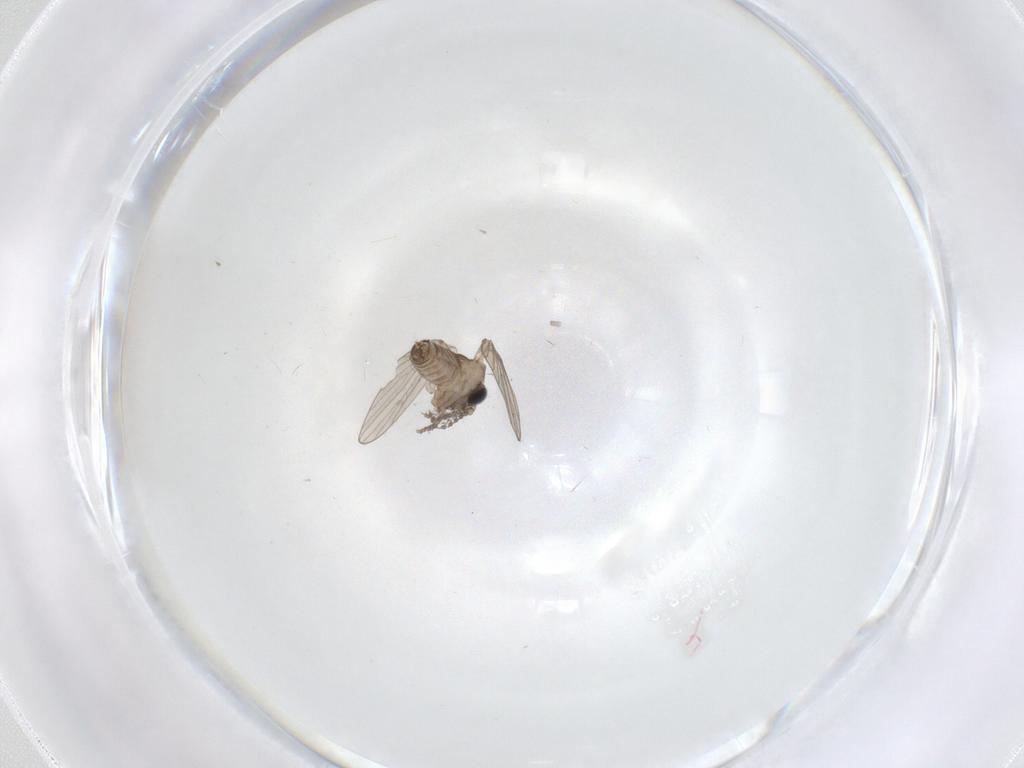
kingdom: Animalia
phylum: Arthropoda
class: Insecta
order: Diptera
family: Psychodidae
